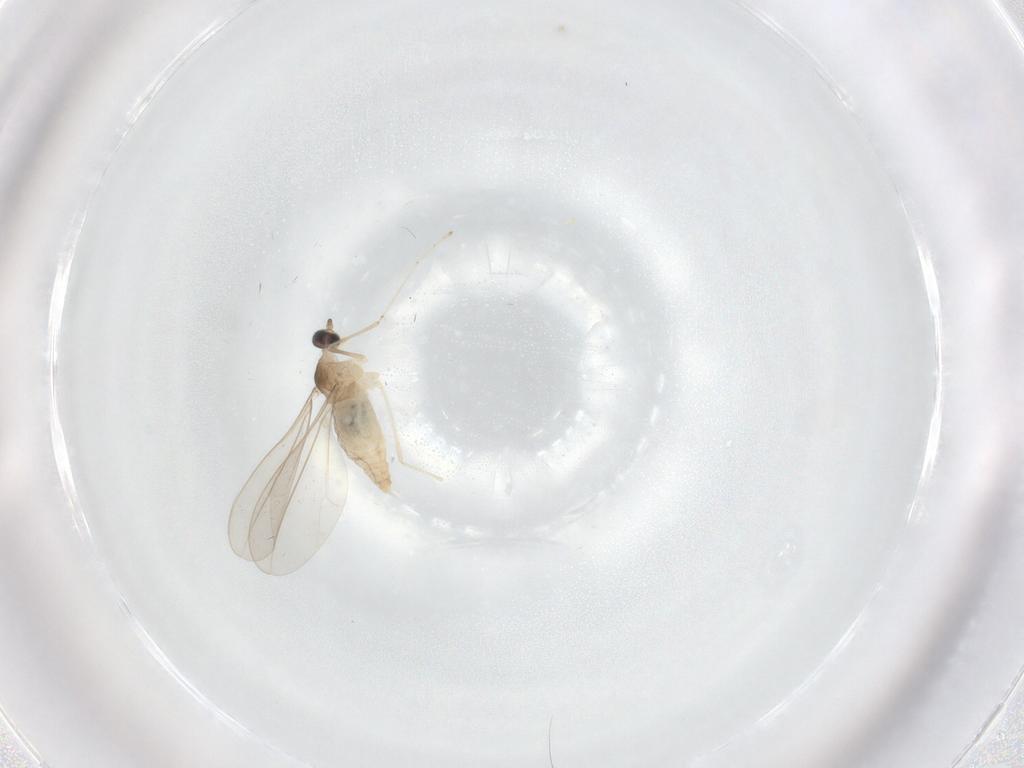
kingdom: Animalia
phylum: Arthropoda
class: Insecta
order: Diptera
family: Cecidomyiidae
